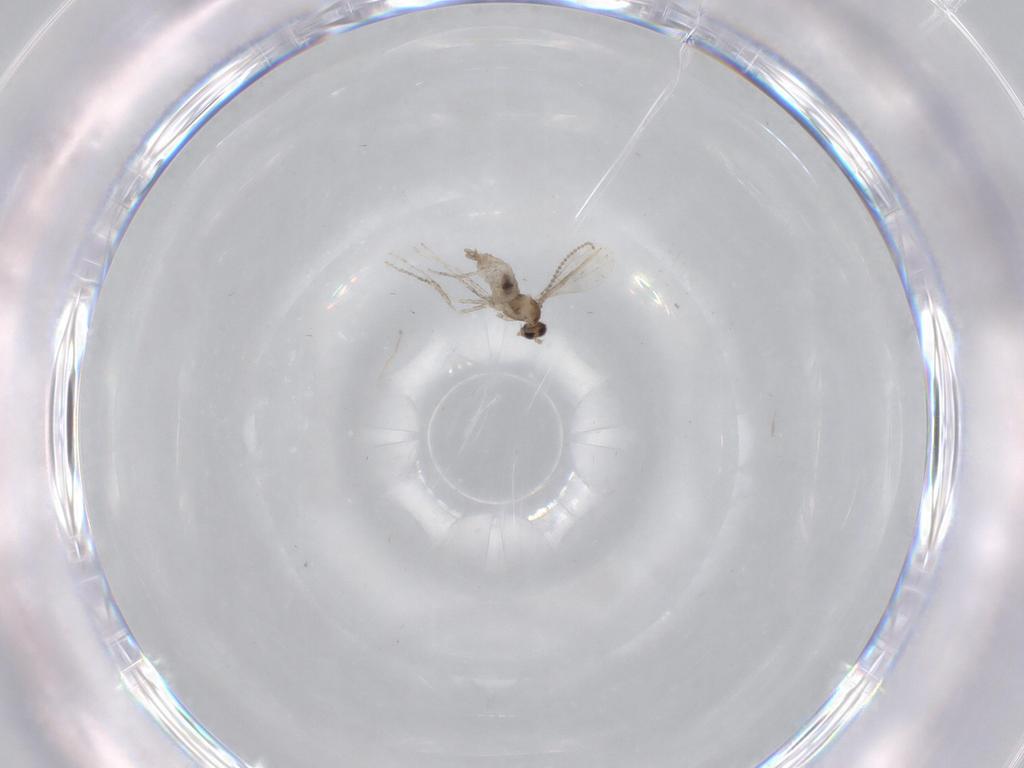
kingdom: Animalia
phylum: Arthropoda
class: Insecta
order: Diptera
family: Cecidomyiidae
